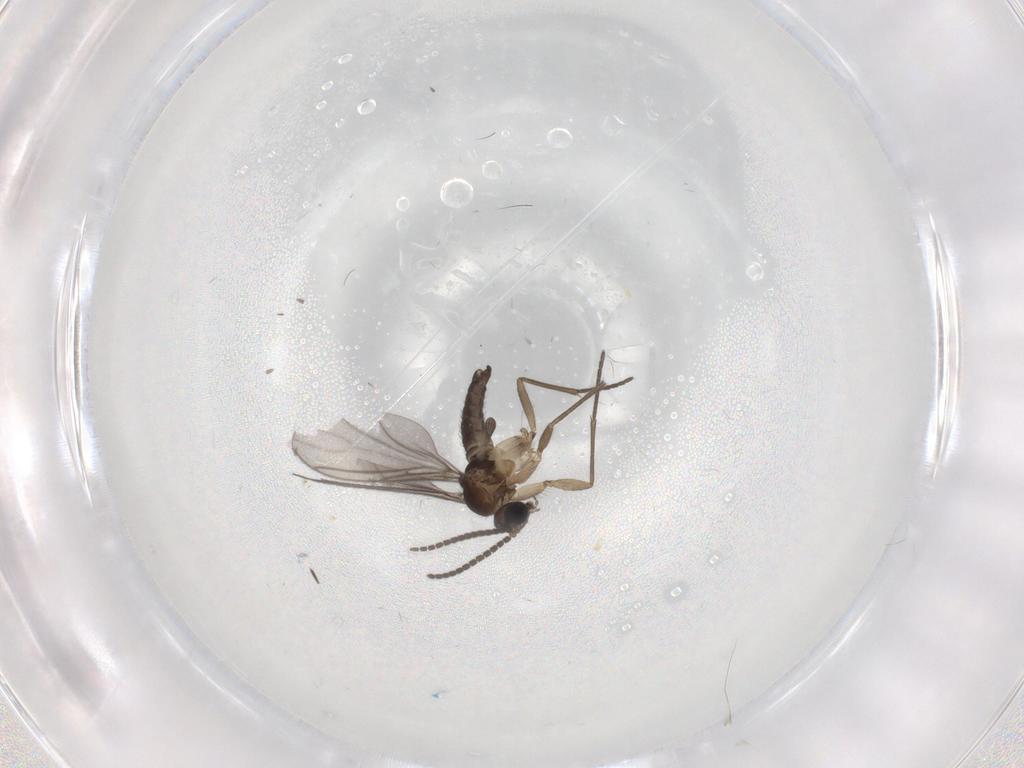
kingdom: Animalia
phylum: Arthropoda
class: Insecta
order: Diptera
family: Sciaridae
